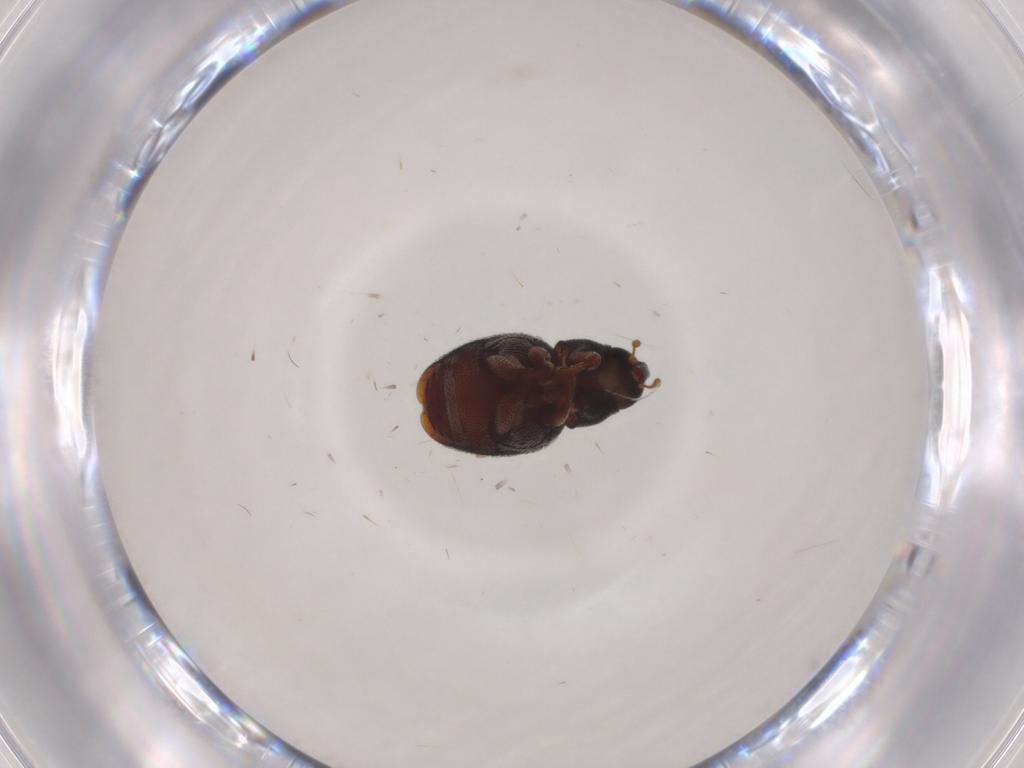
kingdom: Animalia
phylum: Arthropoda
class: Insecta
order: Coleoptera
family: Curculionidae
